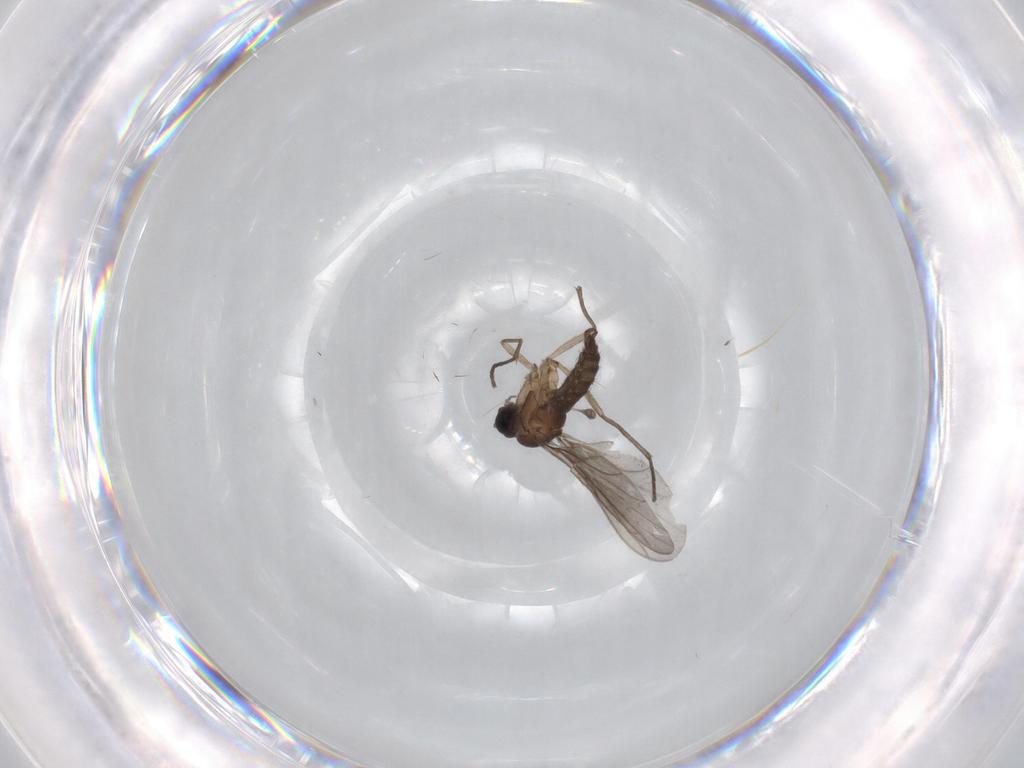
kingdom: Animalia
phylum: Arthropoda
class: Insecta
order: Diptera
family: Sciaridae
